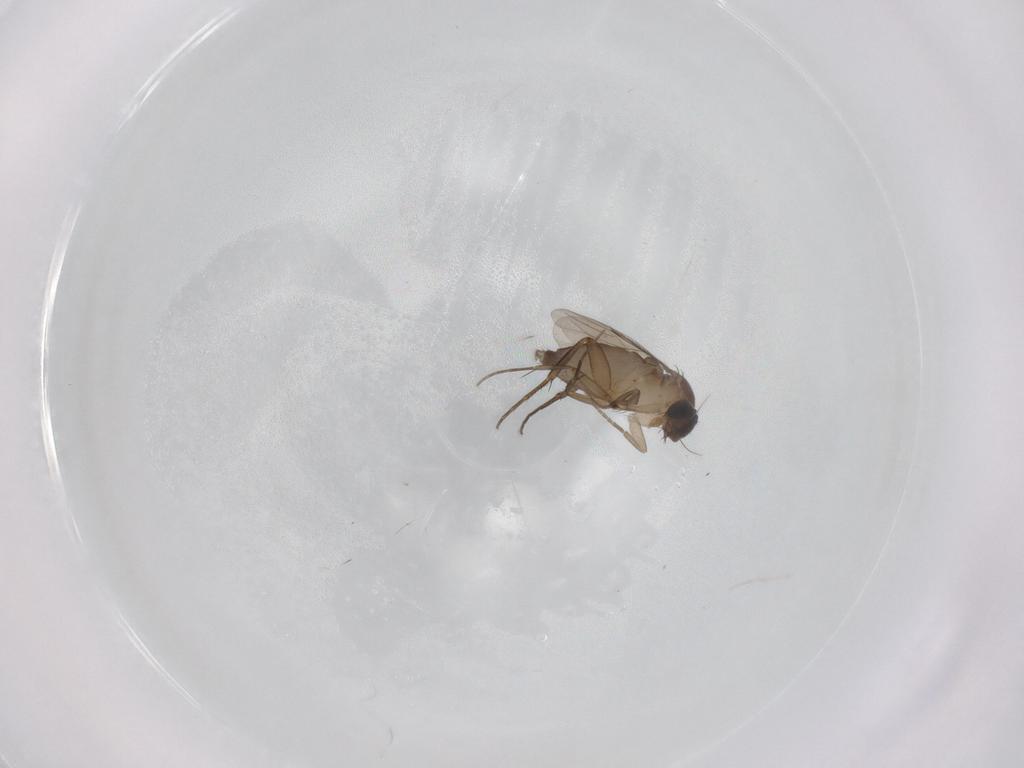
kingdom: Animalia
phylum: Arthropoda
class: Insecta
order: Diptera
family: Phoridae
